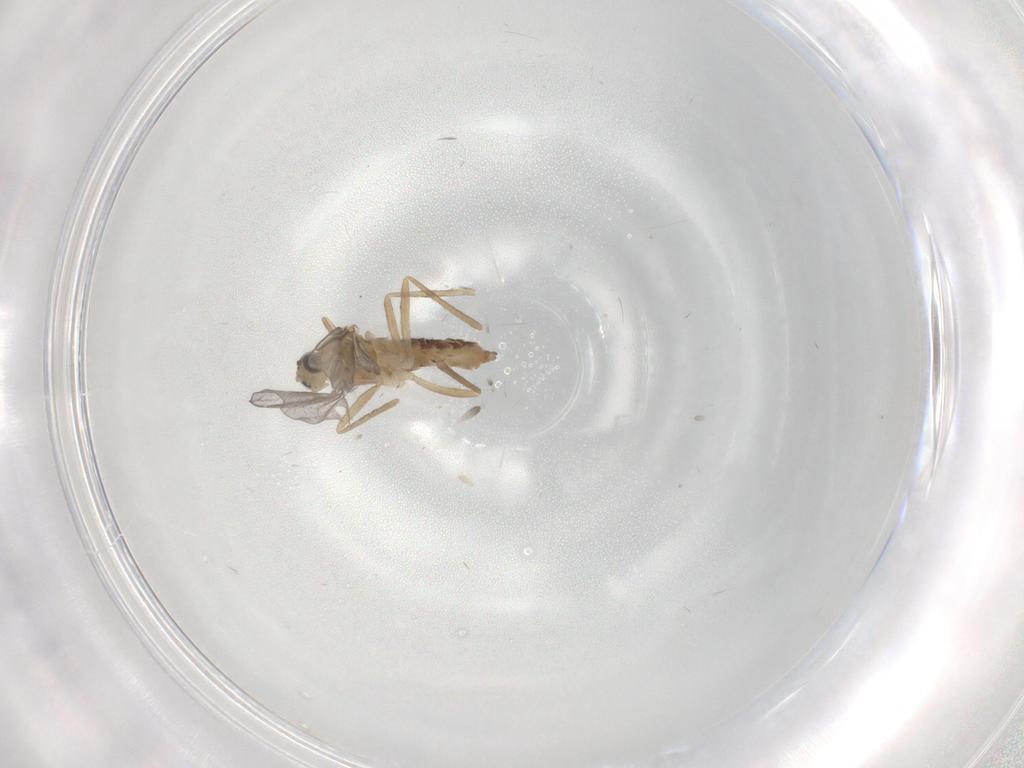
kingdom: Animalia
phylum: Arthropoda
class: Insecta
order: Diptera
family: Cecidomyiidae
